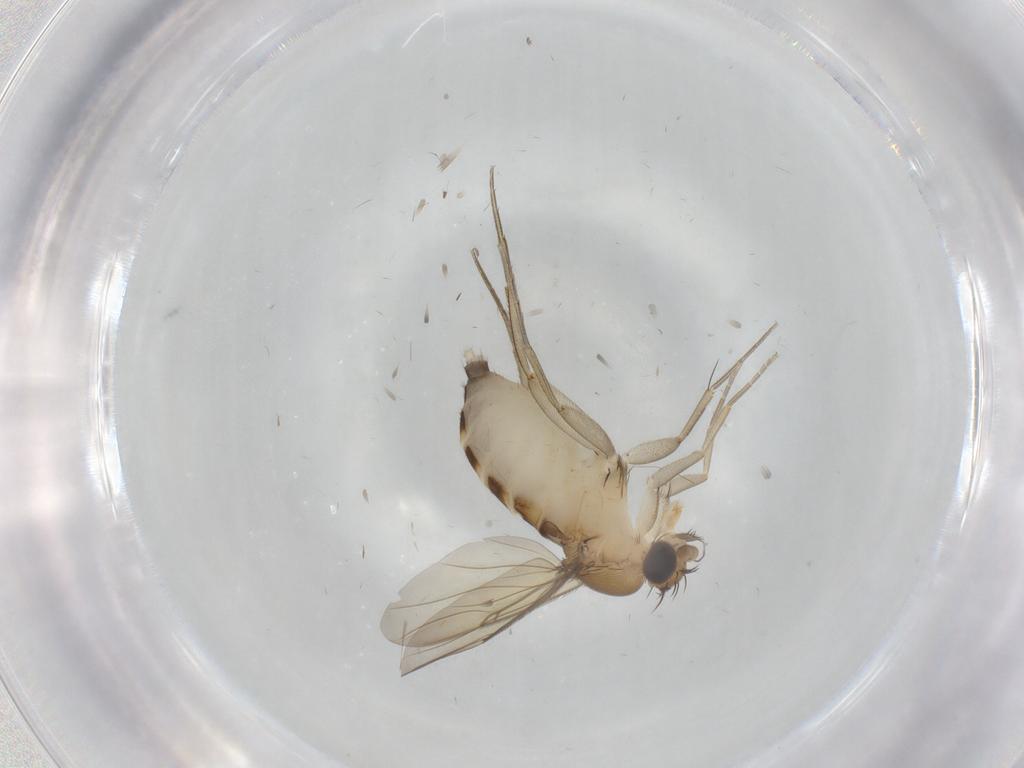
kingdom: Animalia
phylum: Arthropoda
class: Insecta
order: Diptera
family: Phoridae
